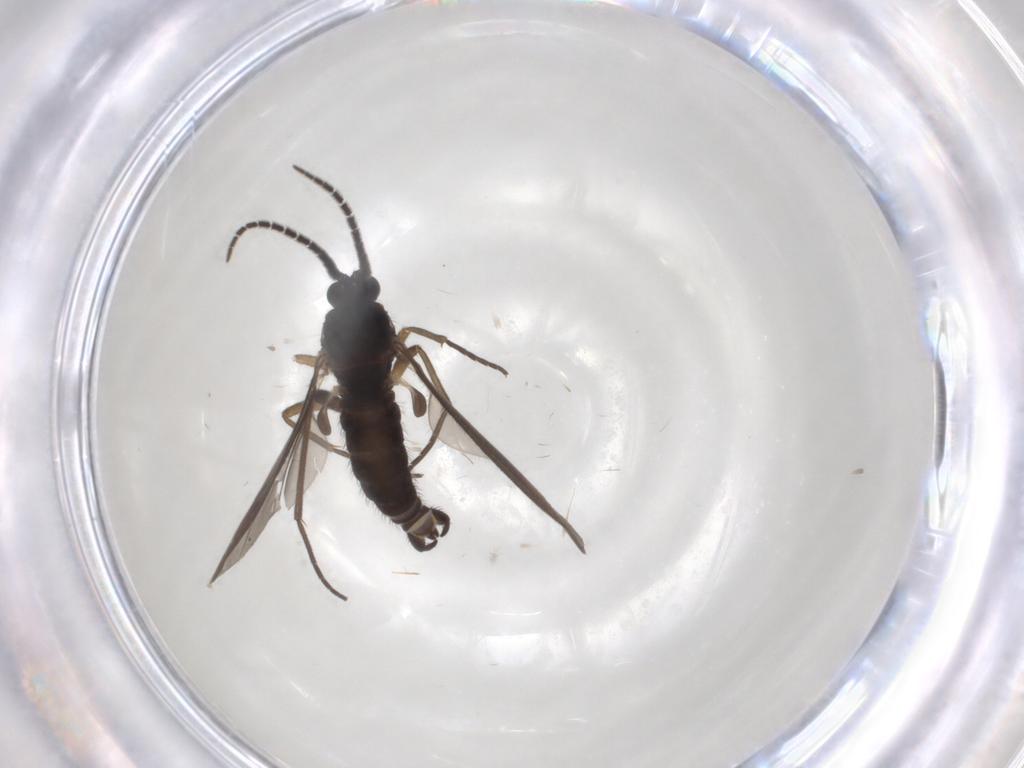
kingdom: Animalia
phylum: Arthropoda
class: Insecta
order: Diptera
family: Sciaridae
